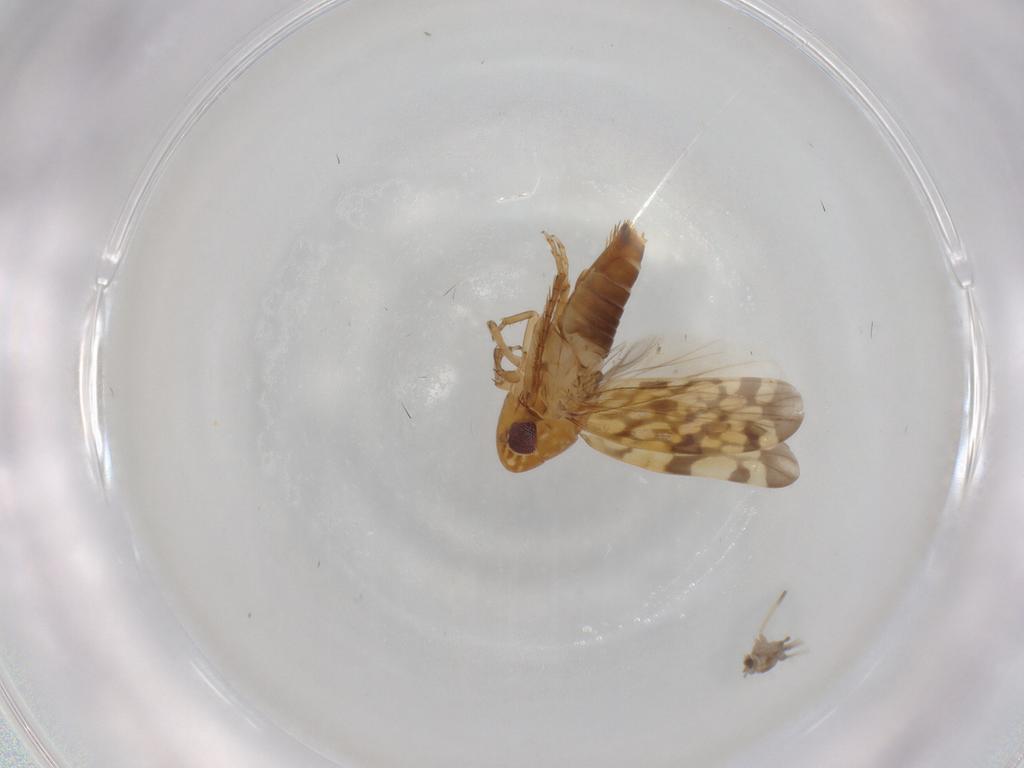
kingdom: Animalia
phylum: Arthropoda
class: Insecta
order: Hemiptera
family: Cicadellidae
